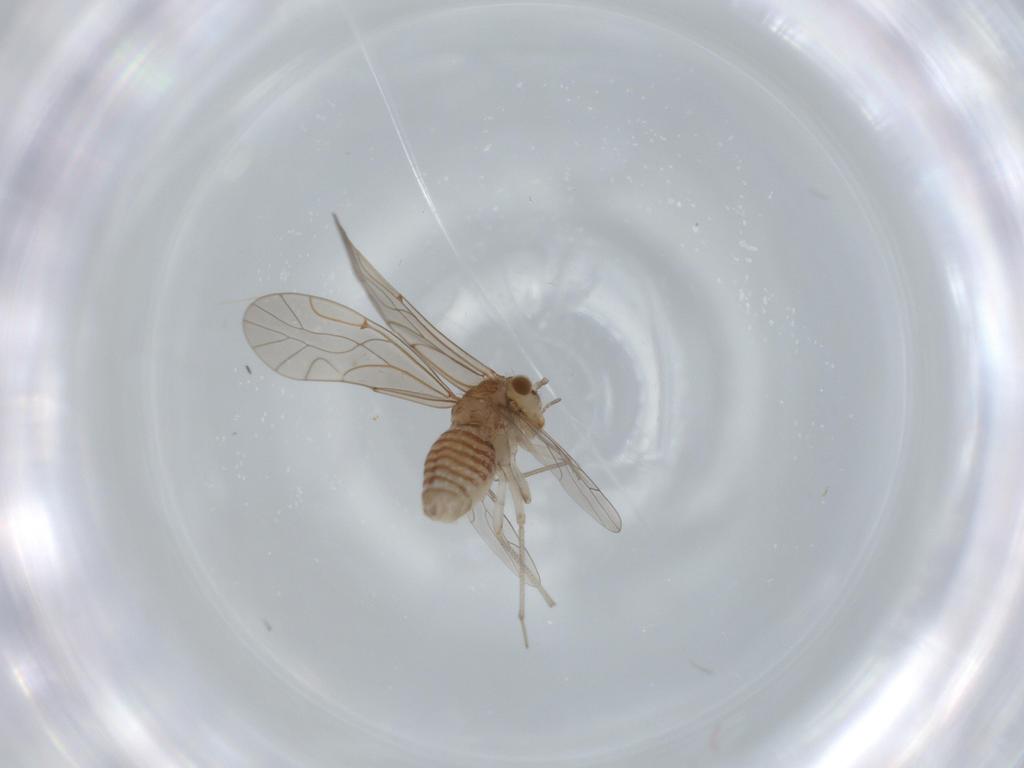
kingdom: Animalia
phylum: Arthropoda
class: Insecta
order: Psocodea
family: Lachesillidae
